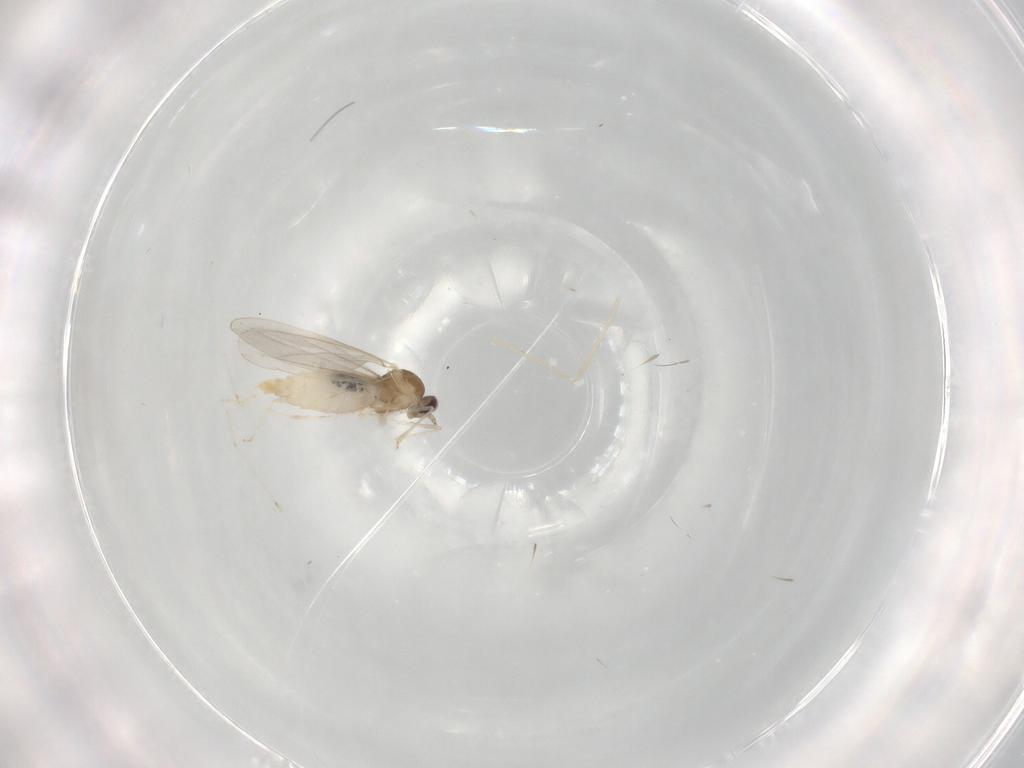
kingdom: Animalia
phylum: Arthropoda
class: Insecta
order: Diptera
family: Cecidomyiidae
